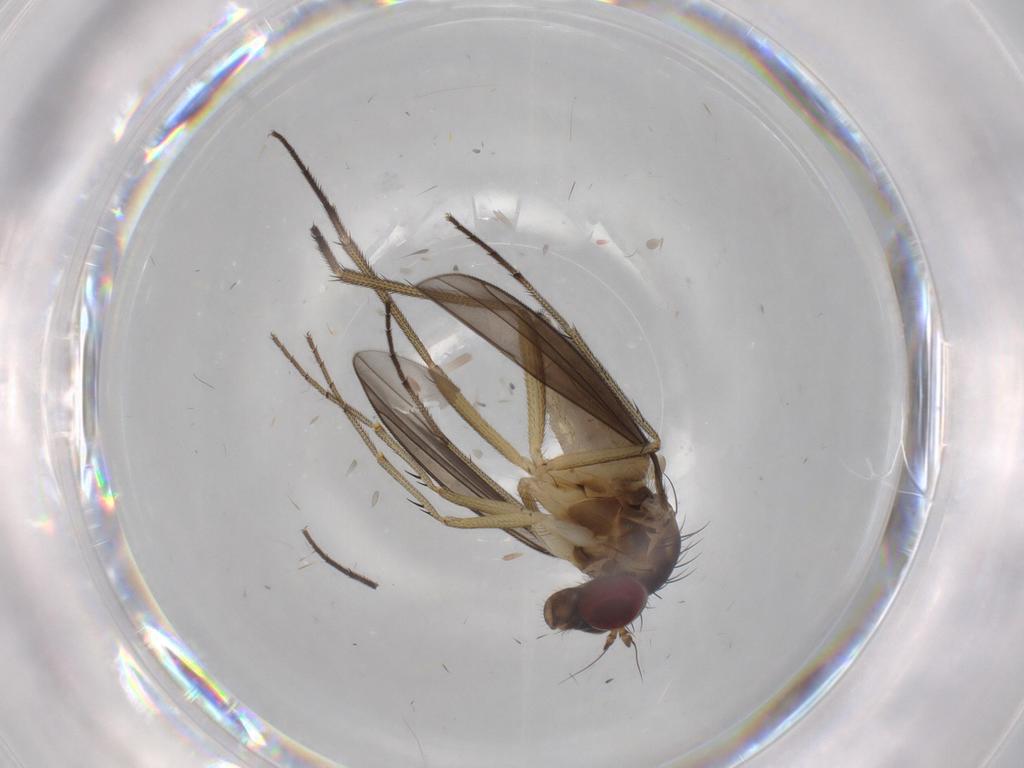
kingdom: Animalia
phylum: Arthropoda
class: Insecta
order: Diptera
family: Dolichopodidae
